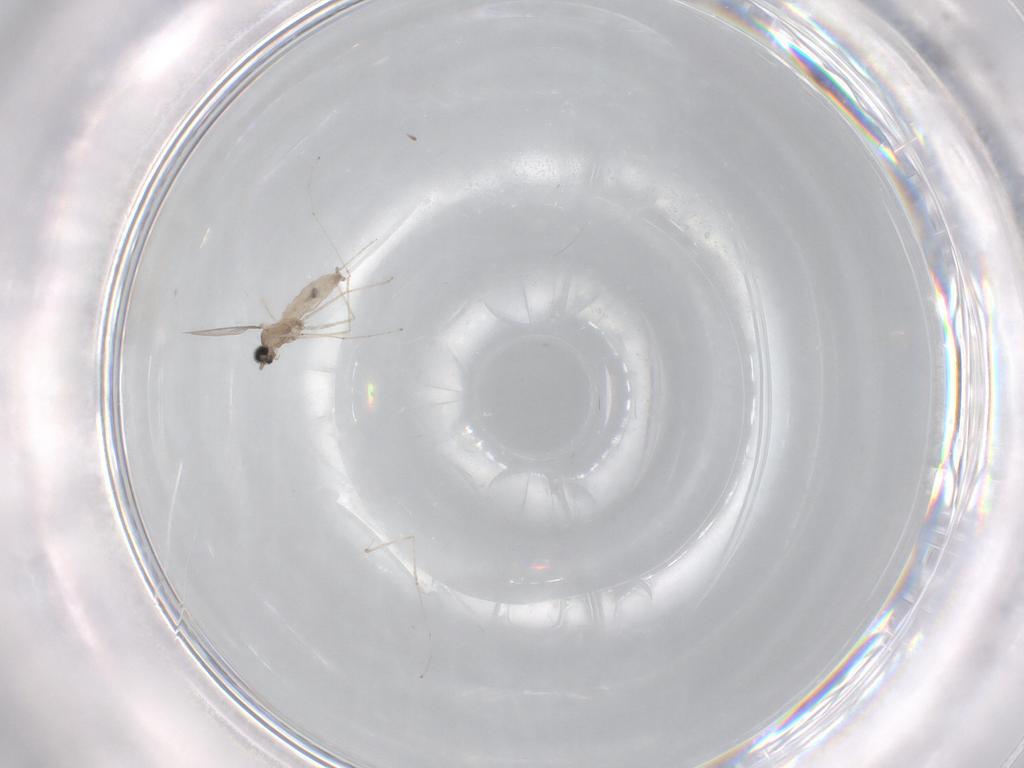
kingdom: Animalia
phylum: Arthropoda
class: Insecta
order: Diptera
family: Cecidomyiidae
